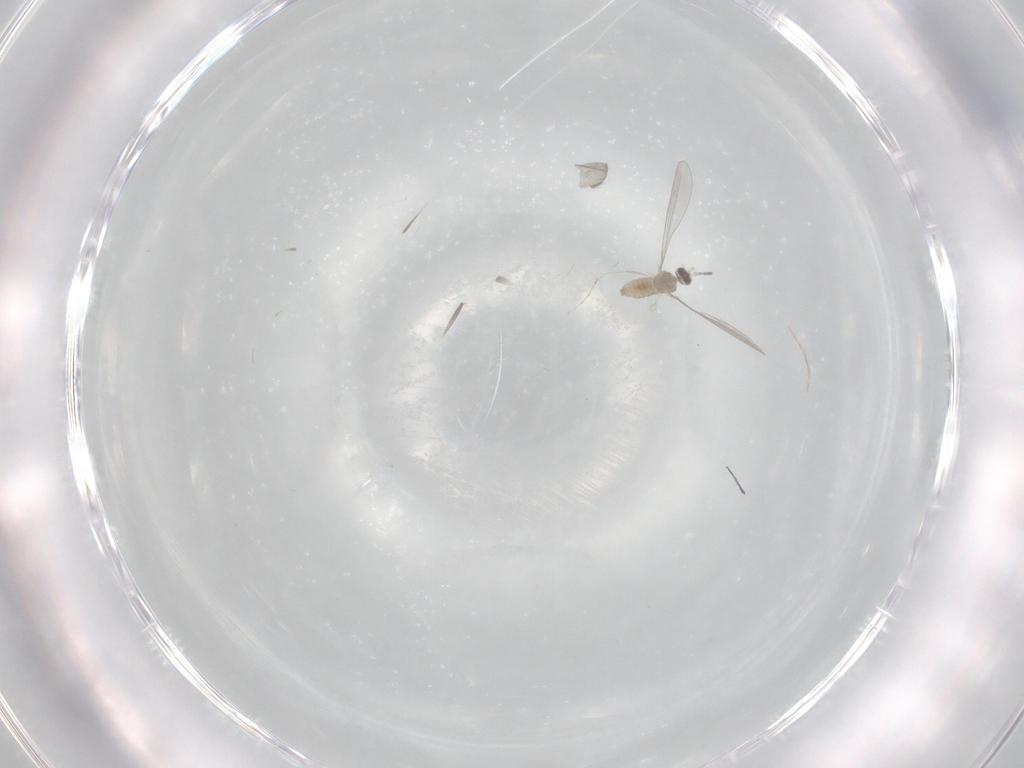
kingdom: Animalia
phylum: Arthropoda
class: Insecta
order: Diptera
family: Sciaridae
